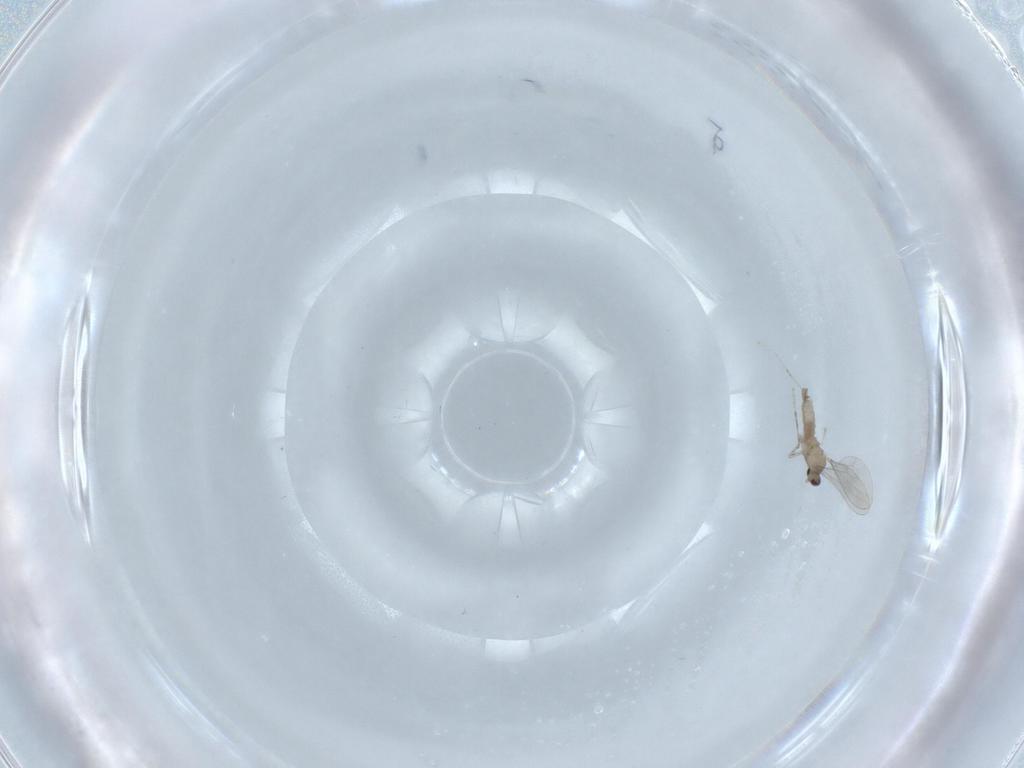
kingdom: Animalia
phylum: Arthropoda
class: Insecta
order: Diptera
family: Cecidomyiidae
